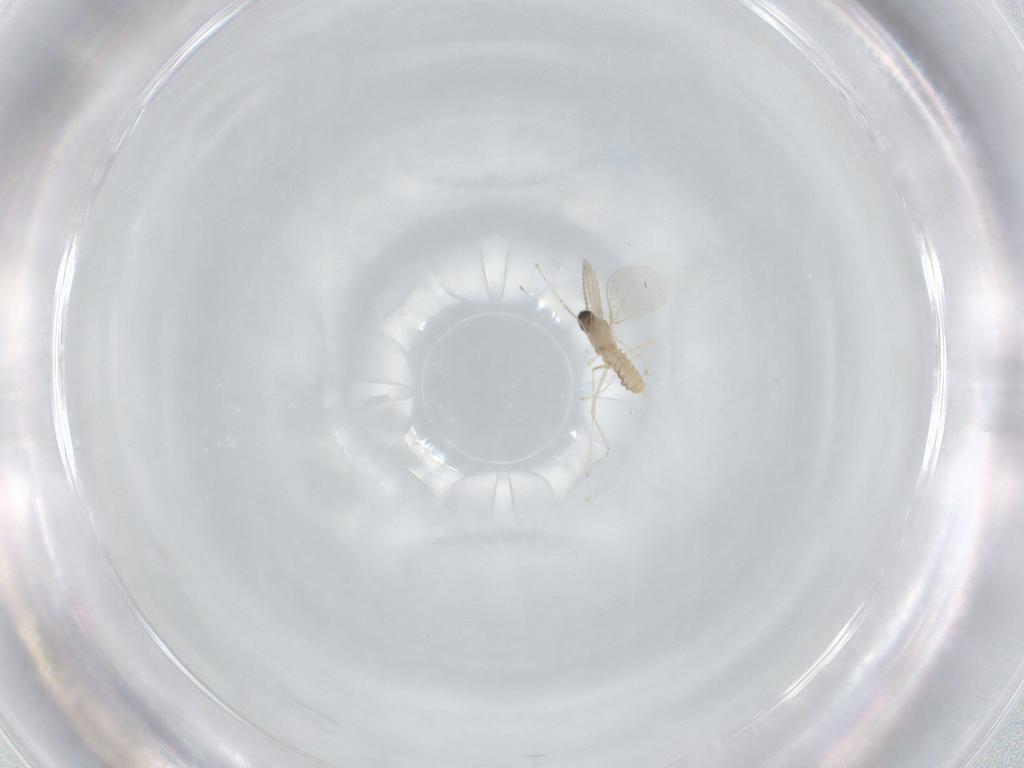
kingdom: Animalia
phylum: Arthropoda
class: Insecta
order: Diptera
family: Cecidomyiidae
